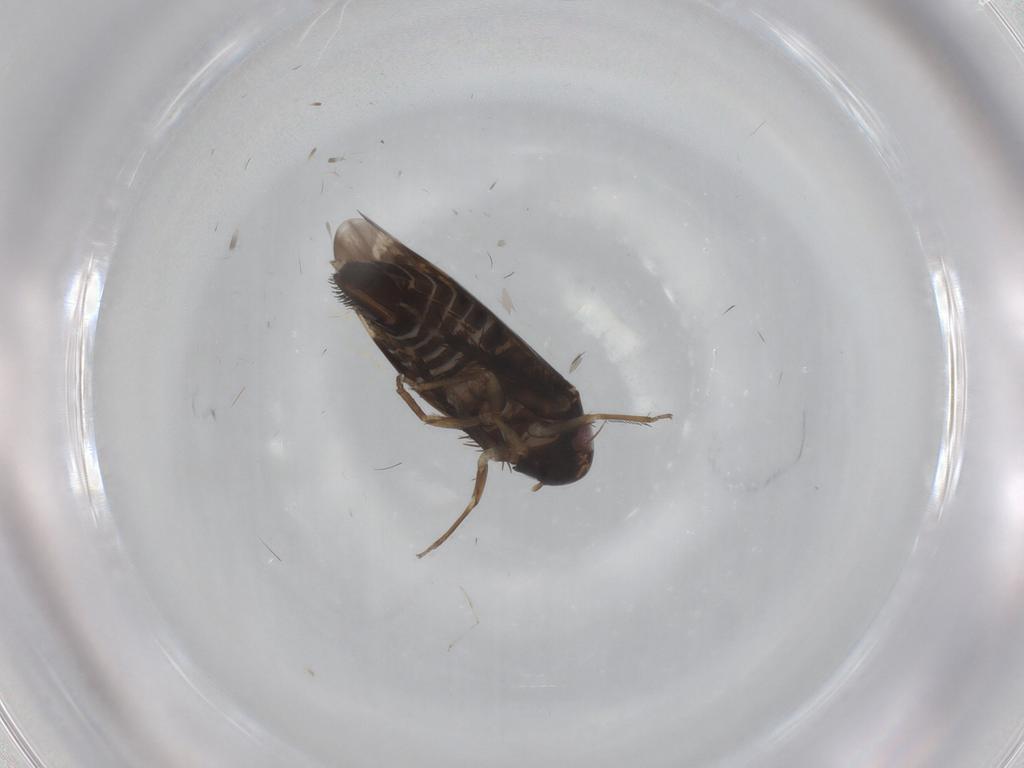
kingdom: Animalia
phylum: Arthropoda
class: Insecta
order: Hemiptera
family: Cicadellidae
